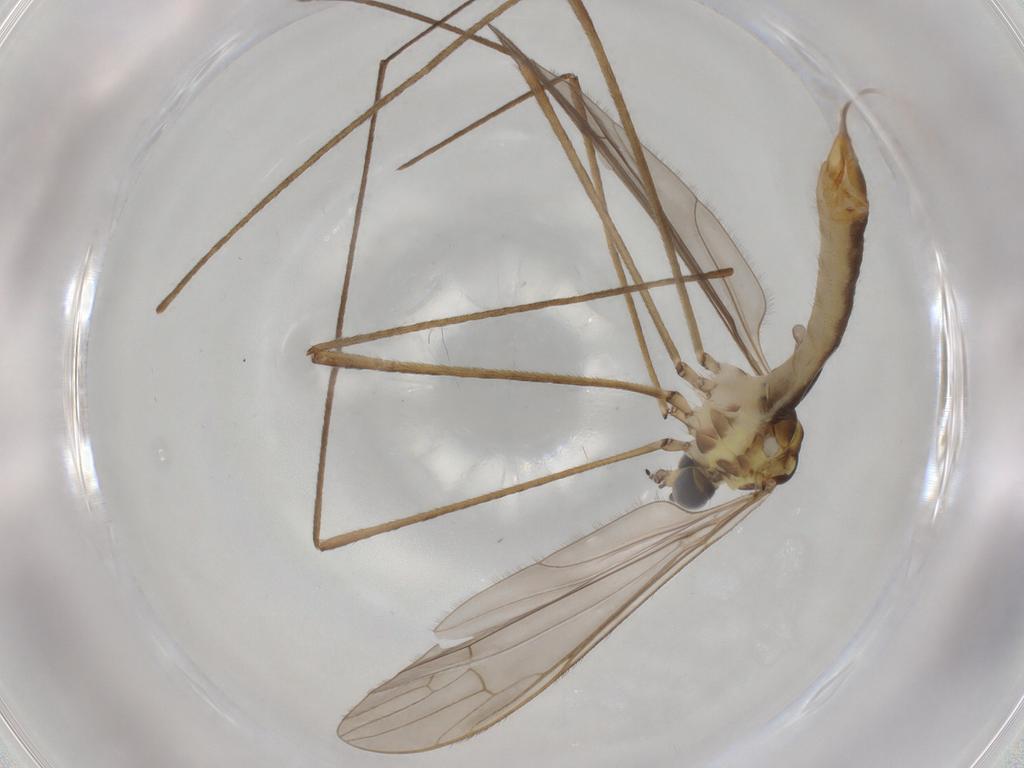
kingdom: Animalia
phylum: Arthropoda
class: Insecta
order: Diptera
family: Limoniidae
